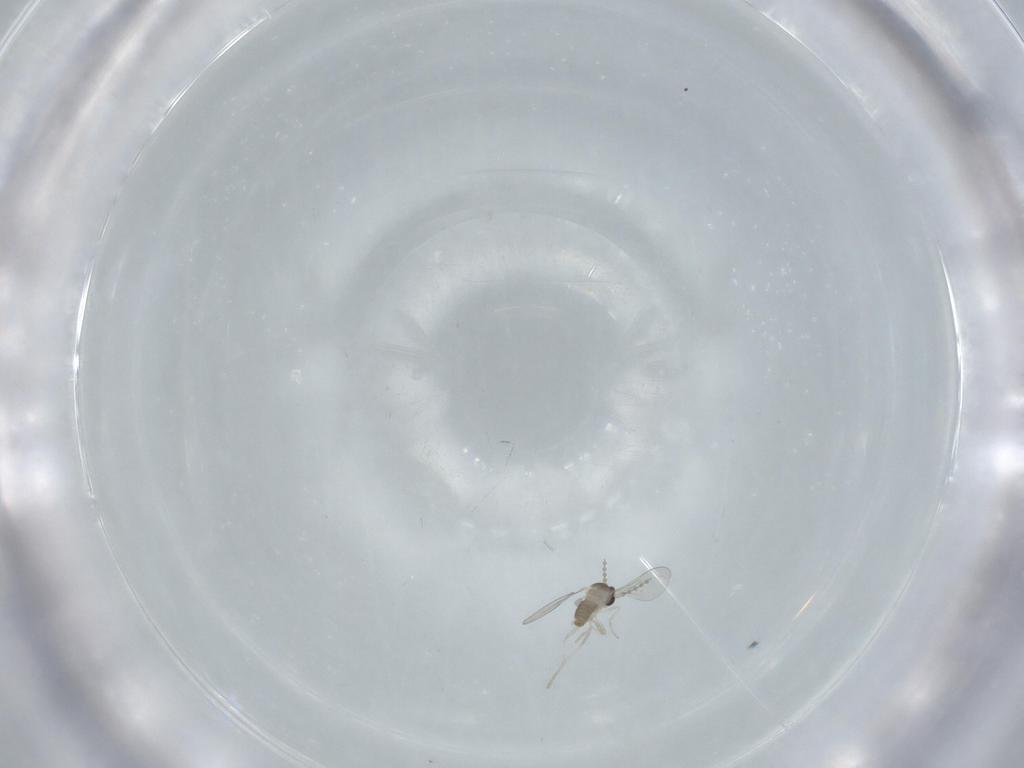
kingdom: Animalia
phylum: Arthropoda
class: Insecta
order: Diptera
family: Cecidomyiidae
